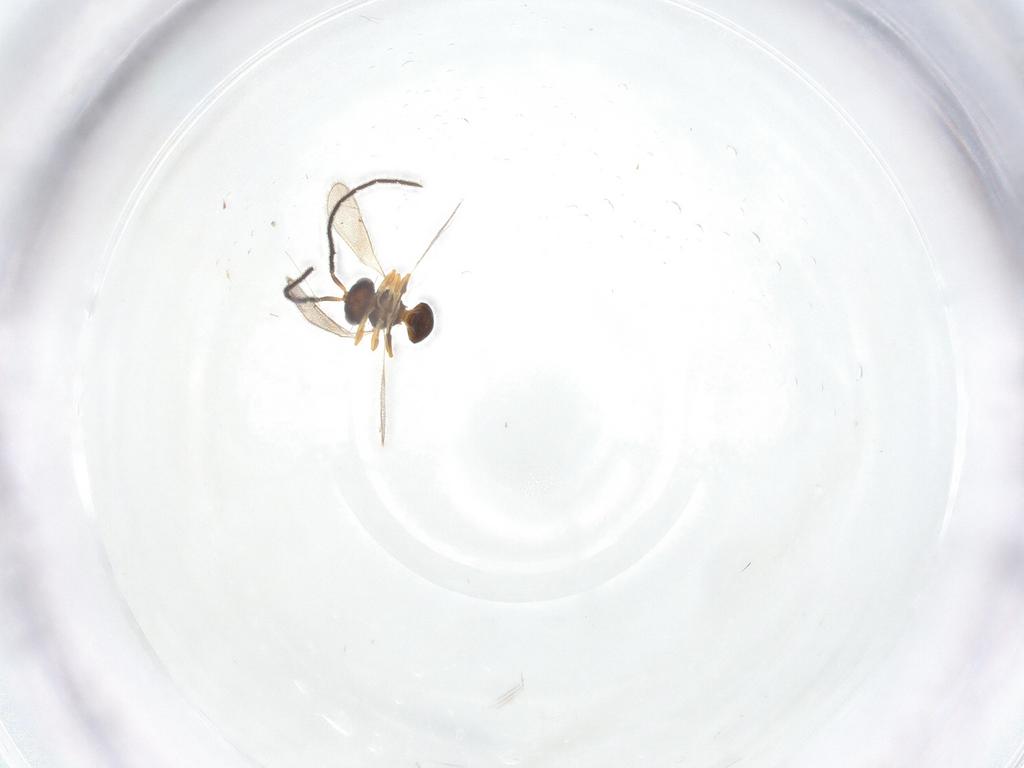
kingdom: Animalia
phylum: Arthropoda
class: Insecta
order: Hymenoptera
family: Scelionidae
